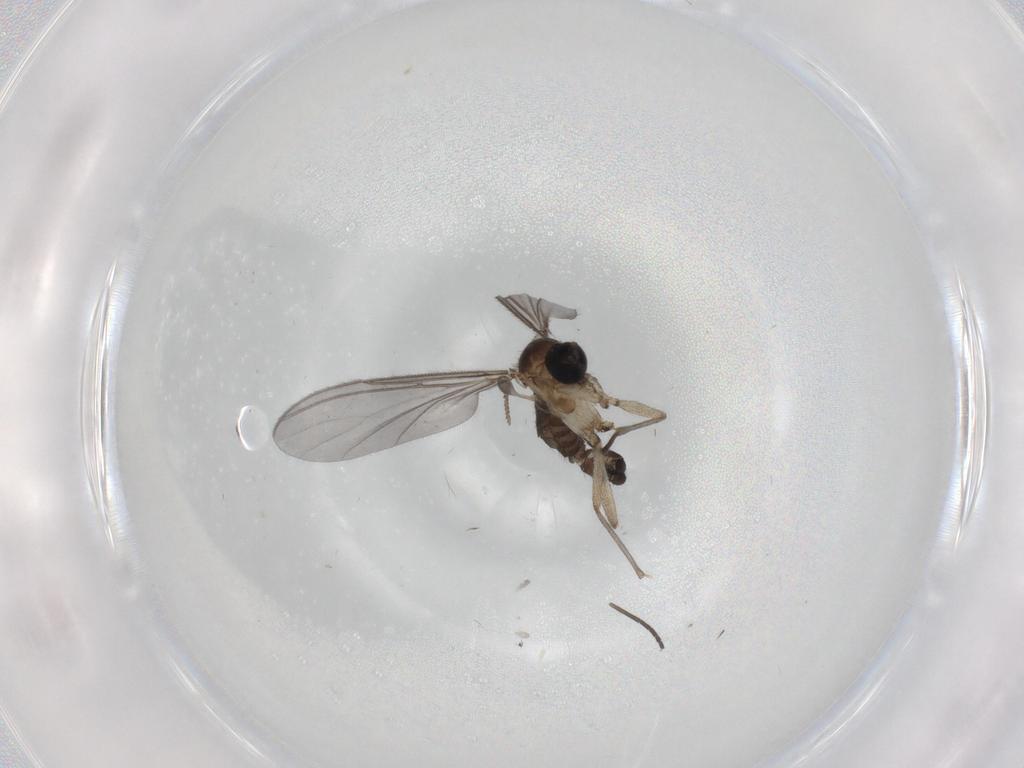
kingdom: Animalia
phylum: Arthropoda
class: Insecta
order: Diptera
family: Phoridae
